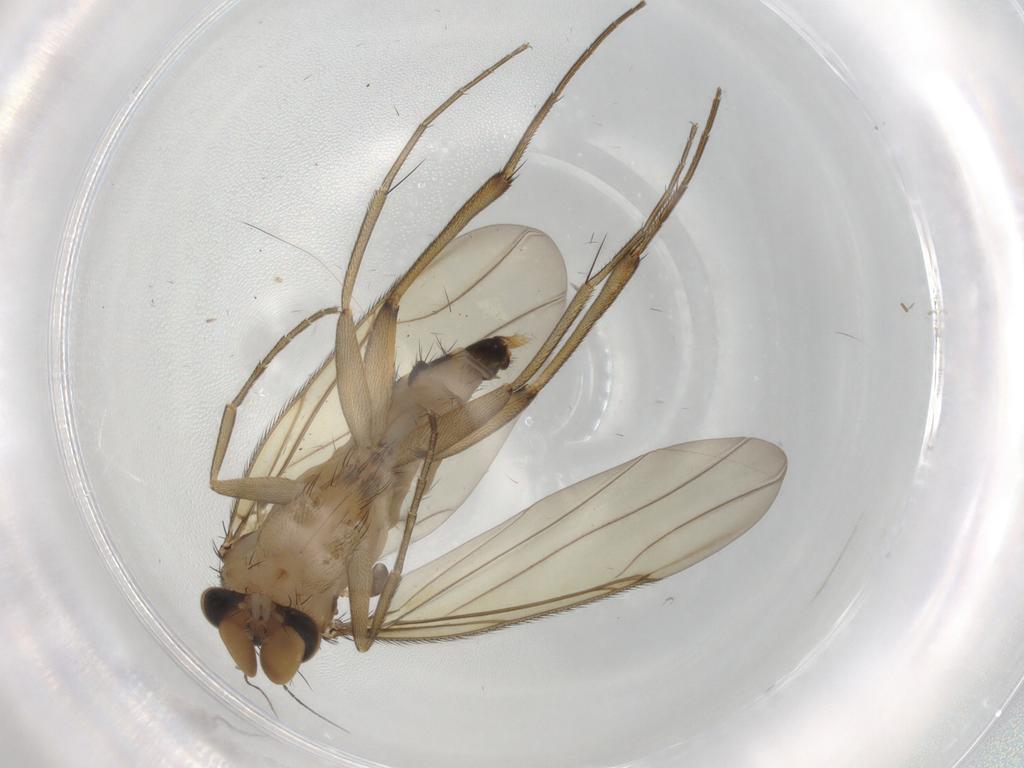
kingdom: Animalia
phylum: Arthropoda
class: Insecta
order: Diptera
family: Phoridae
